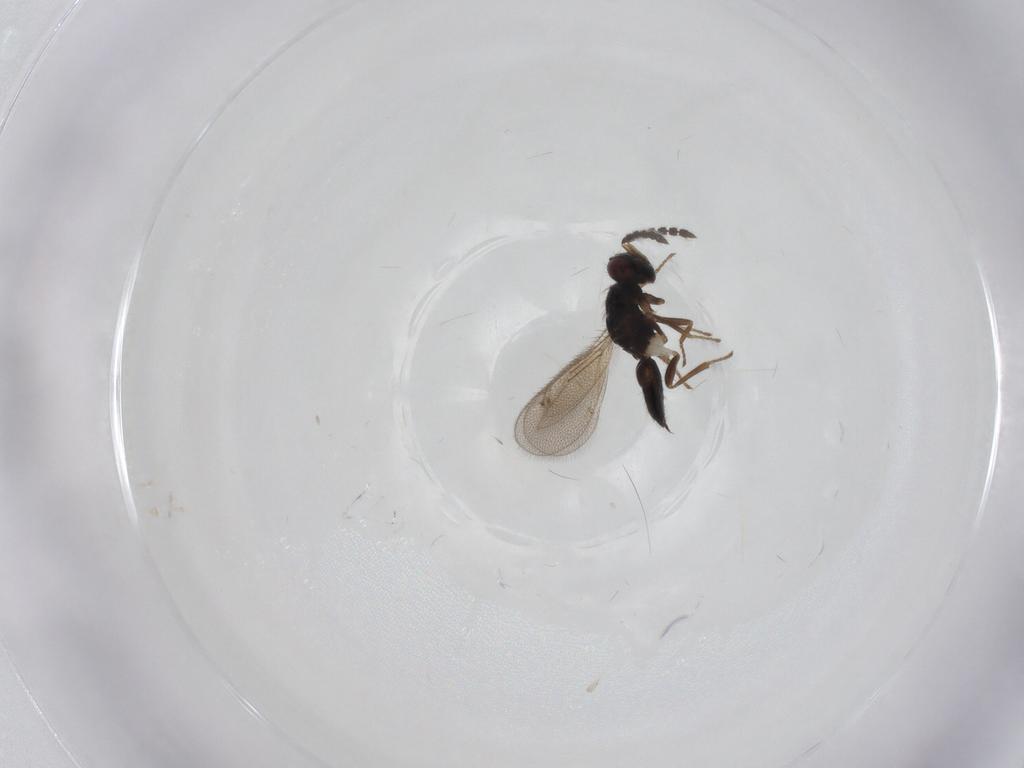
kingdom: Animalia
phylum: Arthropoda
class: Insecta
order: Hymenoptera
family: Eulophidae
